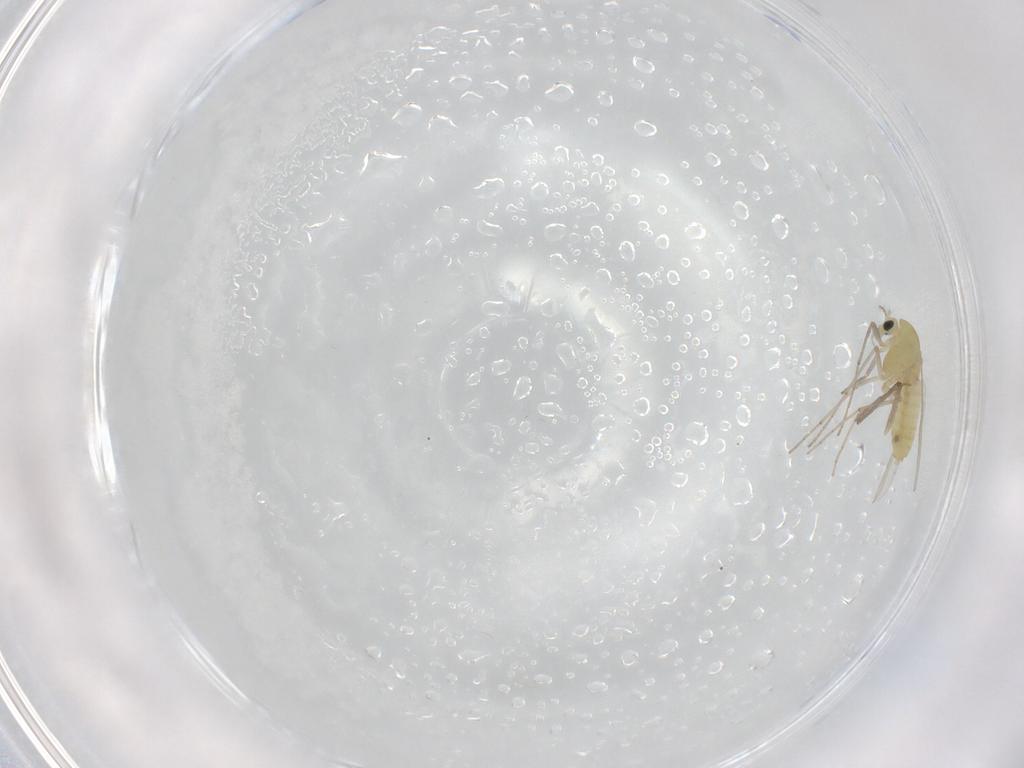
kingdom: Animalia
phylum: Arthropoda
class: Insecta
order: Diptera
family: Chironomidae
